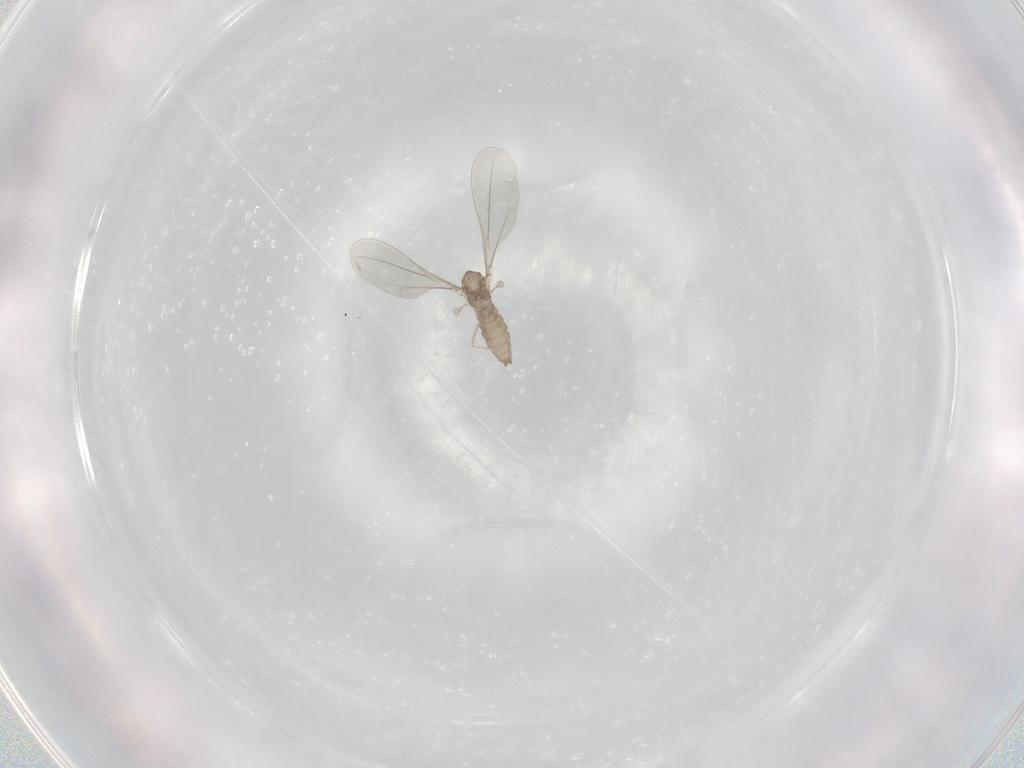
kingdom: Animalia
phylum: Arthropoda
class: Insecta
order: Diptera
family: Cecidomyiidae
